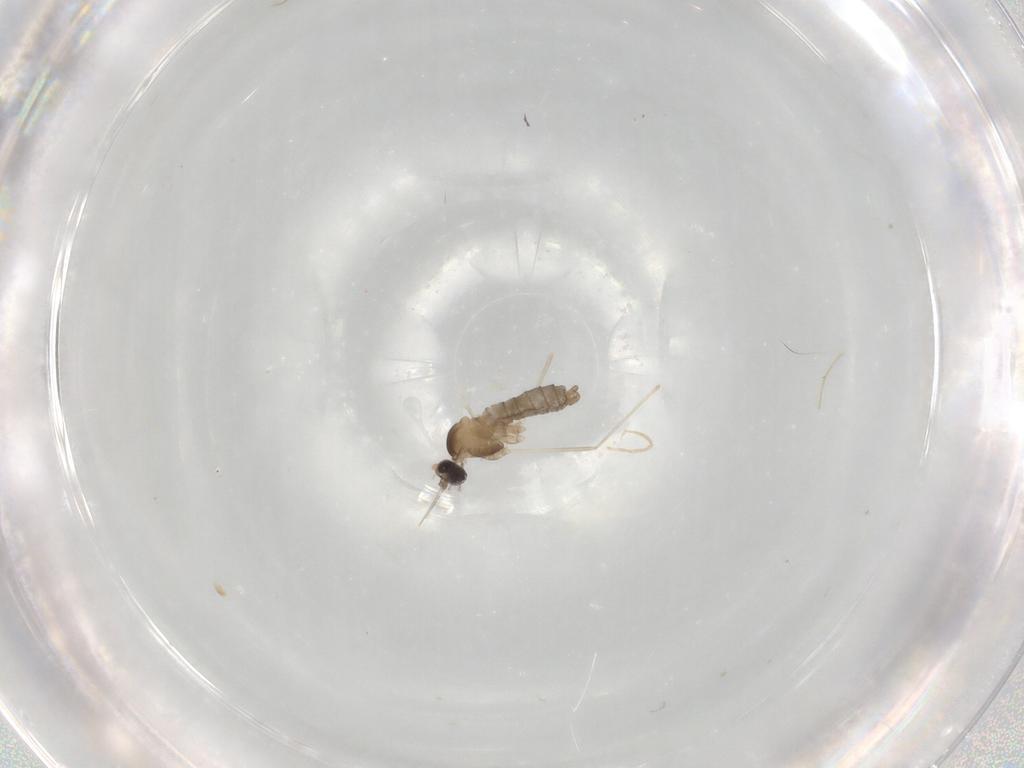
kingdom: Animalia
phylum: Arthropoda
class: Insecta
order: Diptera
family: Cecidomyiidae
